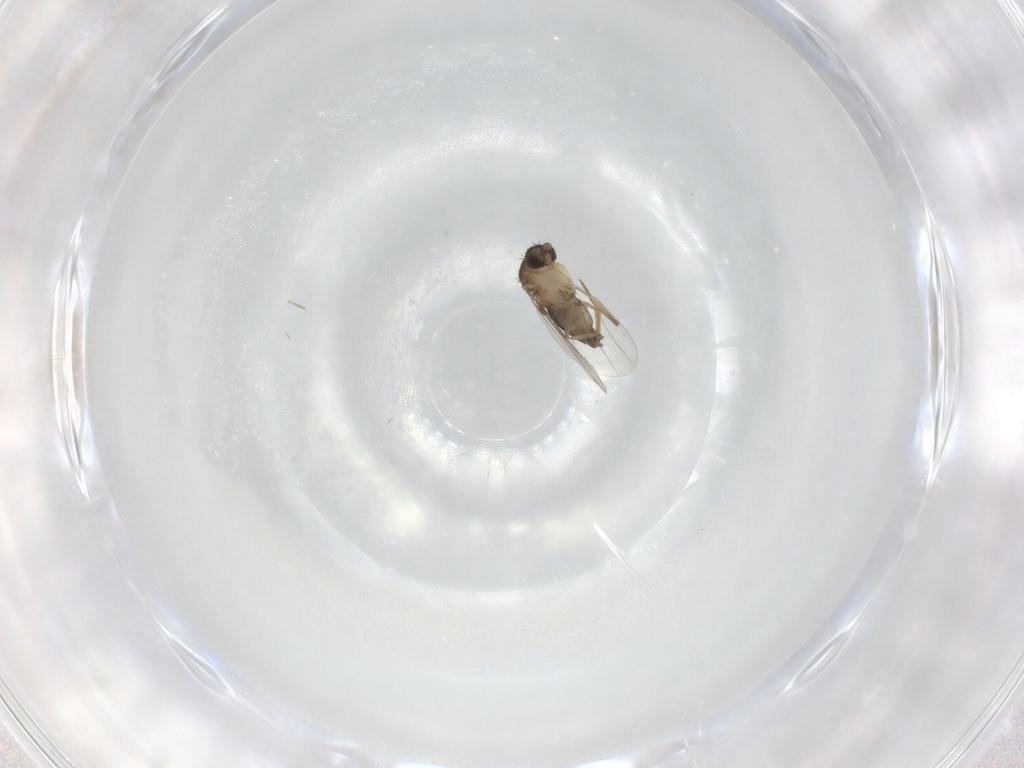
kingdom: Animalia
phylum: Arthropoda
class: Insecta
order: Diptera
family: Phoridae
